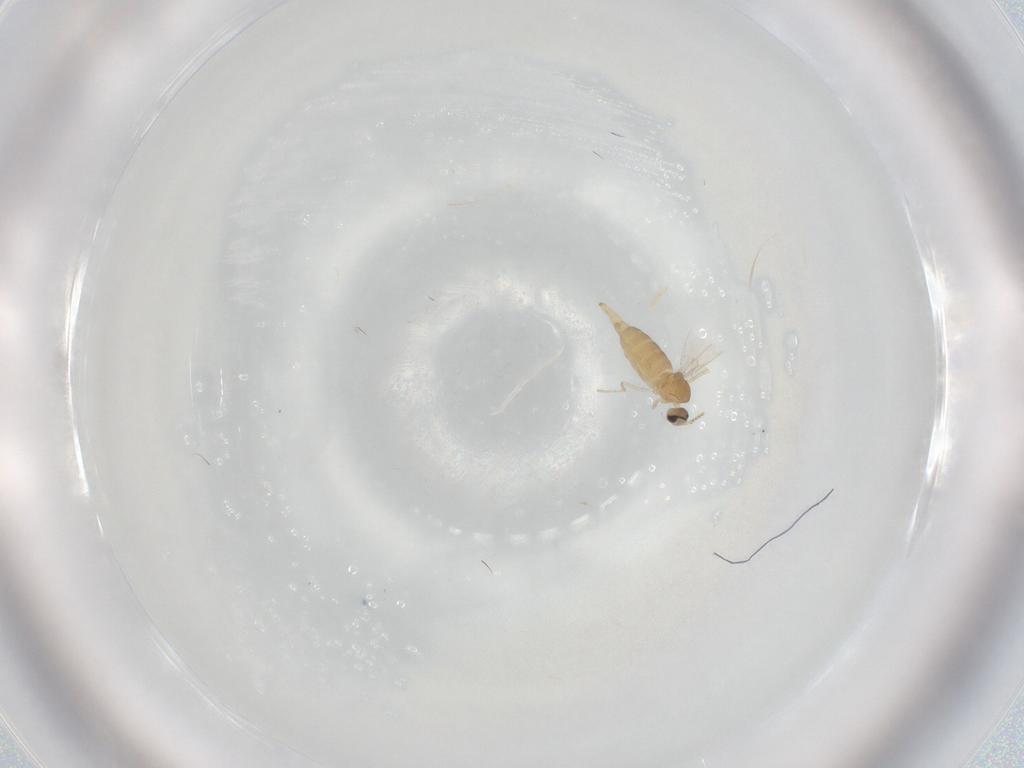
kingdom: Animalia
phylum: Arthropoda
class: Insecta
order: Diptera
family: Cecidomyiidae
